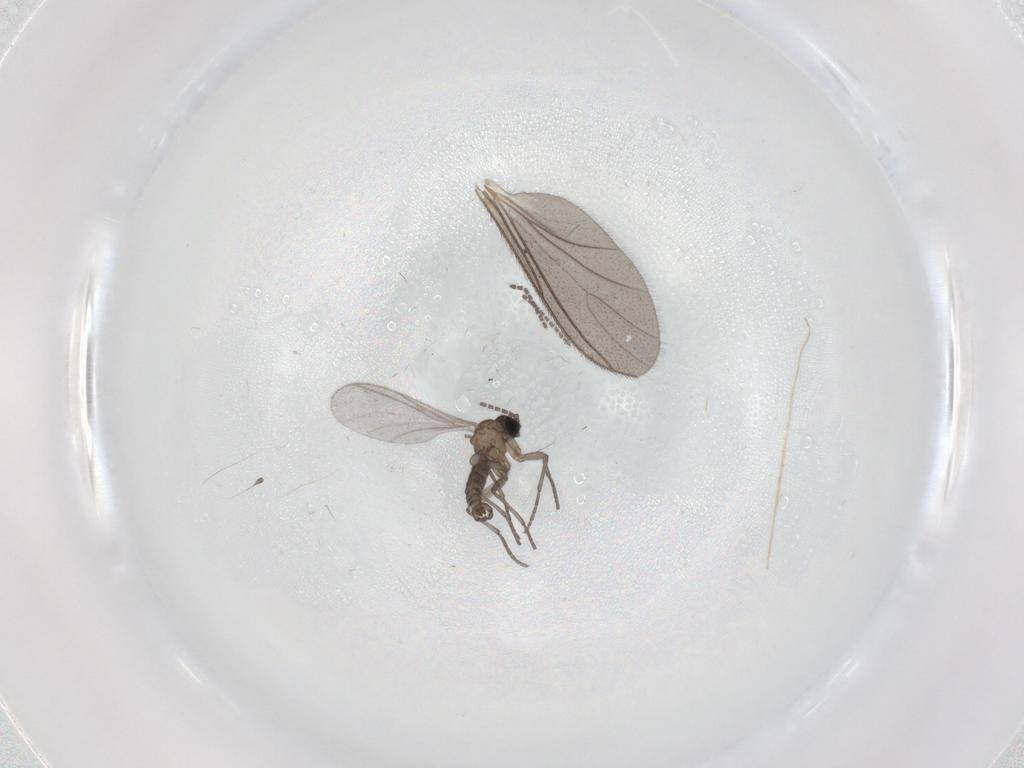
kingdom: Animalia
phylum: Arthropoda
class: Insecta
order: Diptera
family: Sciaridae
